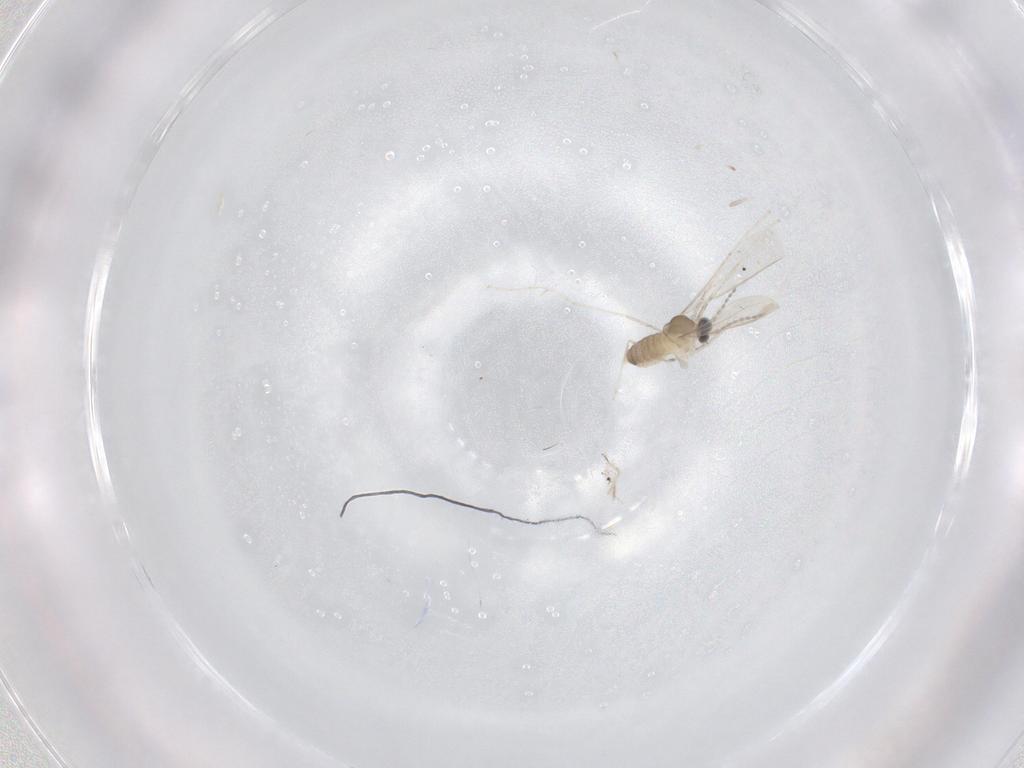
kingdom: Animalia
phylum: Arthropoda
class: Insecta
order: Diptera
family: Cecidomyiidae
